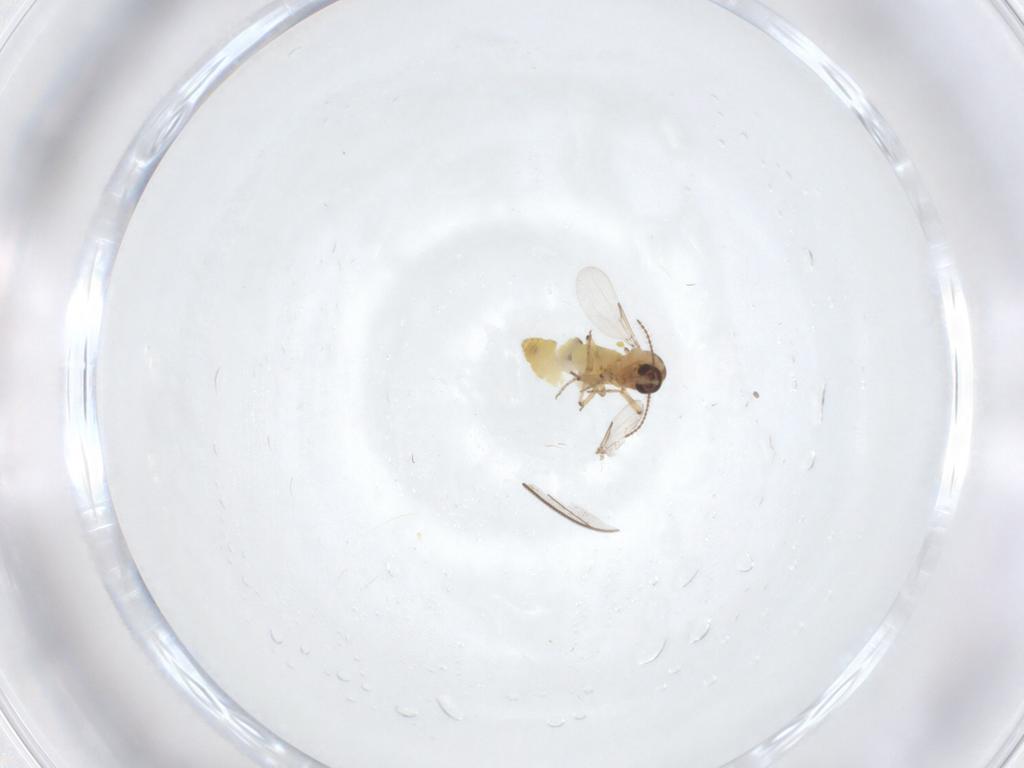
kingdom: Animalia
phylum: Arthropoda
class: Insecta
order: Diptera
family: Ceratopogonidae
